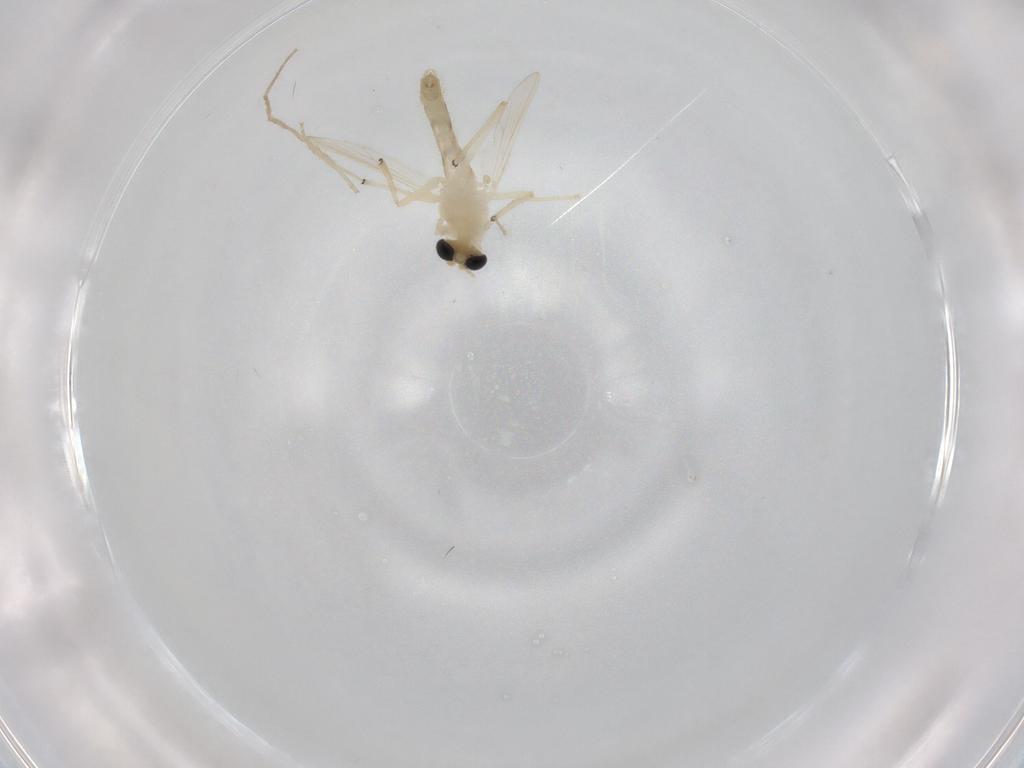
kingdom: Animalia
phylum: Arthropoda
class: Insecta
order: Diptera
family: Chironomidae
